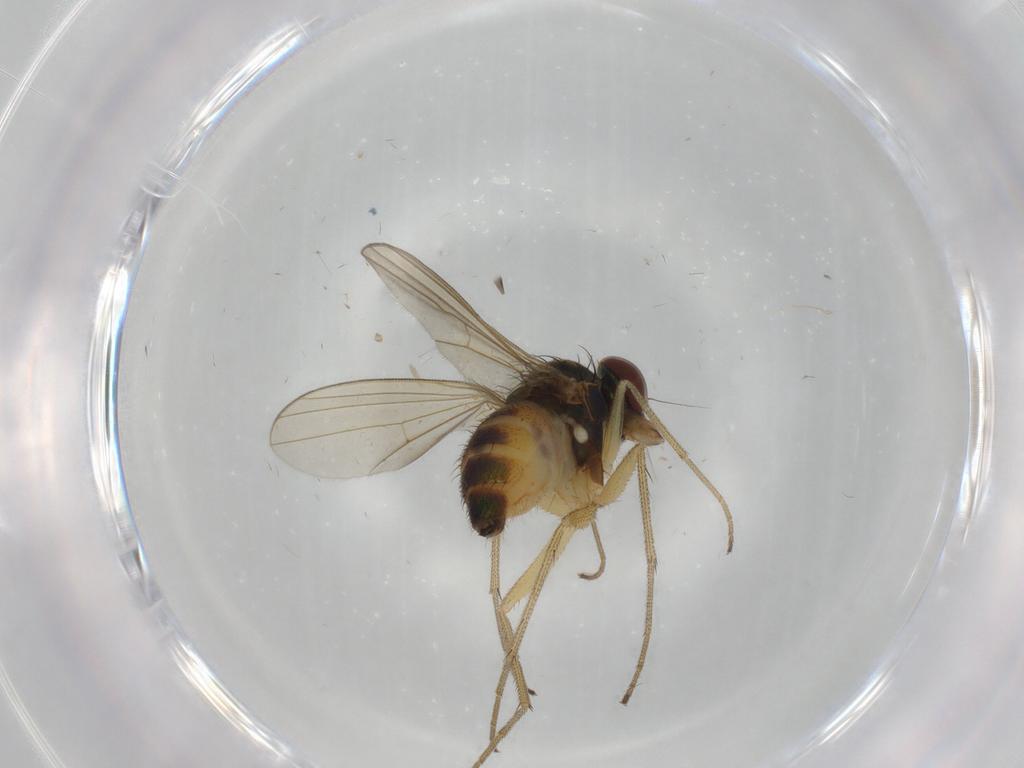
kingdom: Animalia
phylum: Arthropoda
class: Insecta
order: Diptera
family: Dolichopodidae
